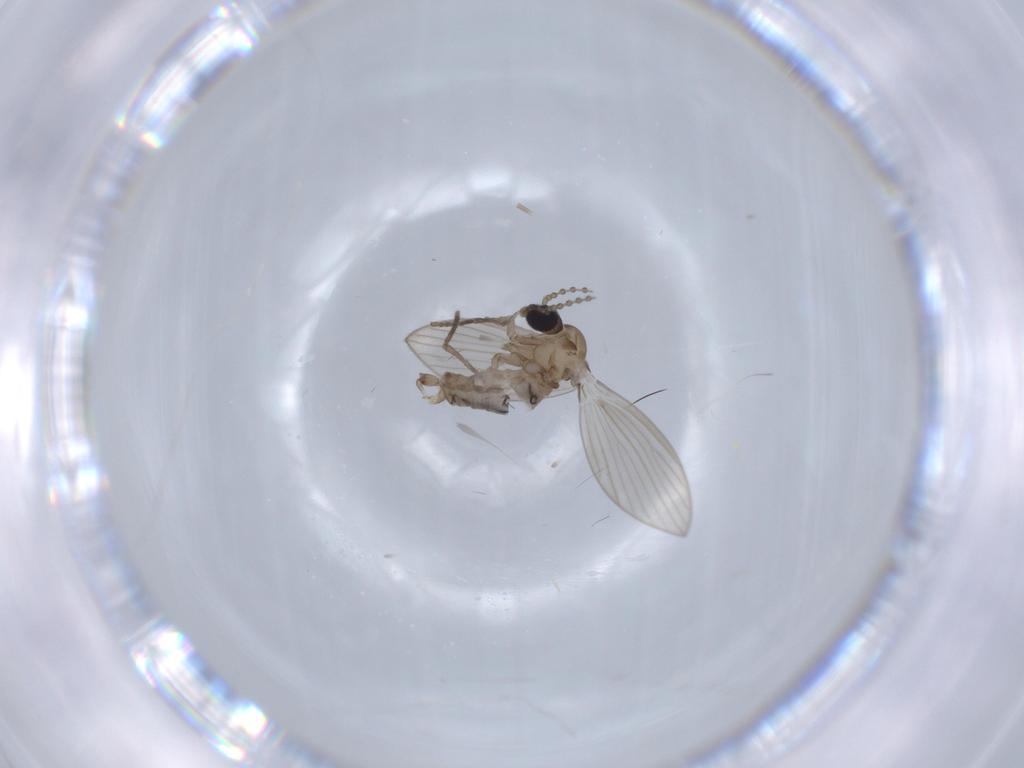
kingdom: Animalia
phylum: Arthropoda
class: Insecta
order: Diptera
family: Psychodidae
